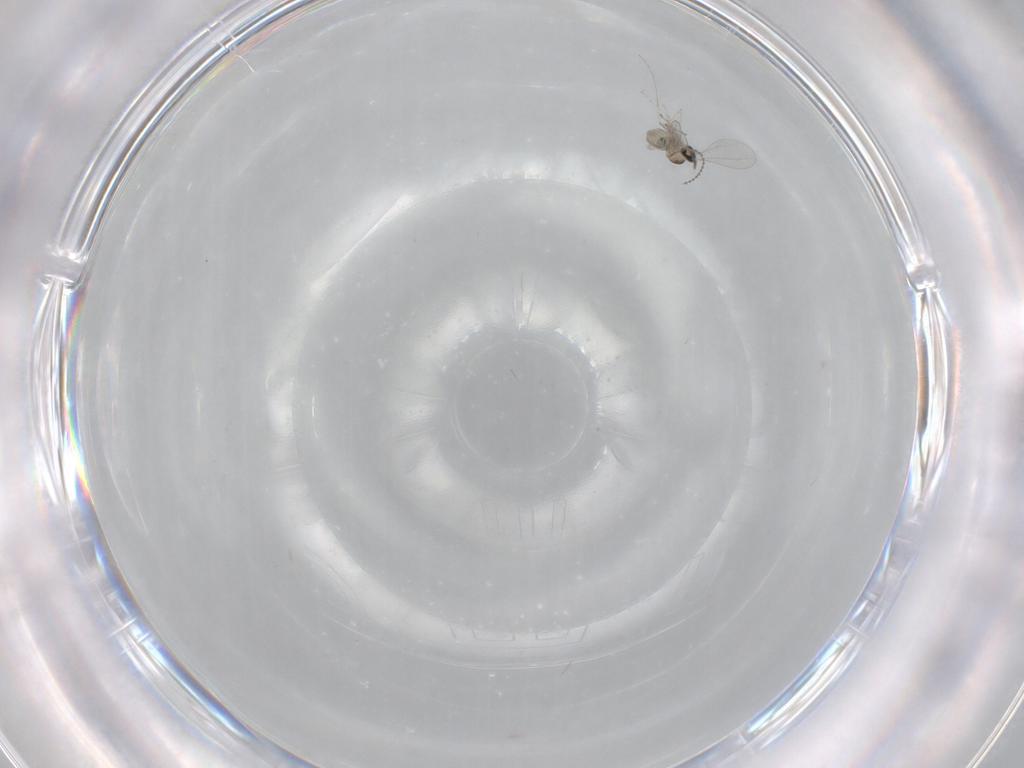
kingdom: Animalia
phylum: Arthropoda
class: Insecta
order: Diptera
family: Cecidomyiidae
